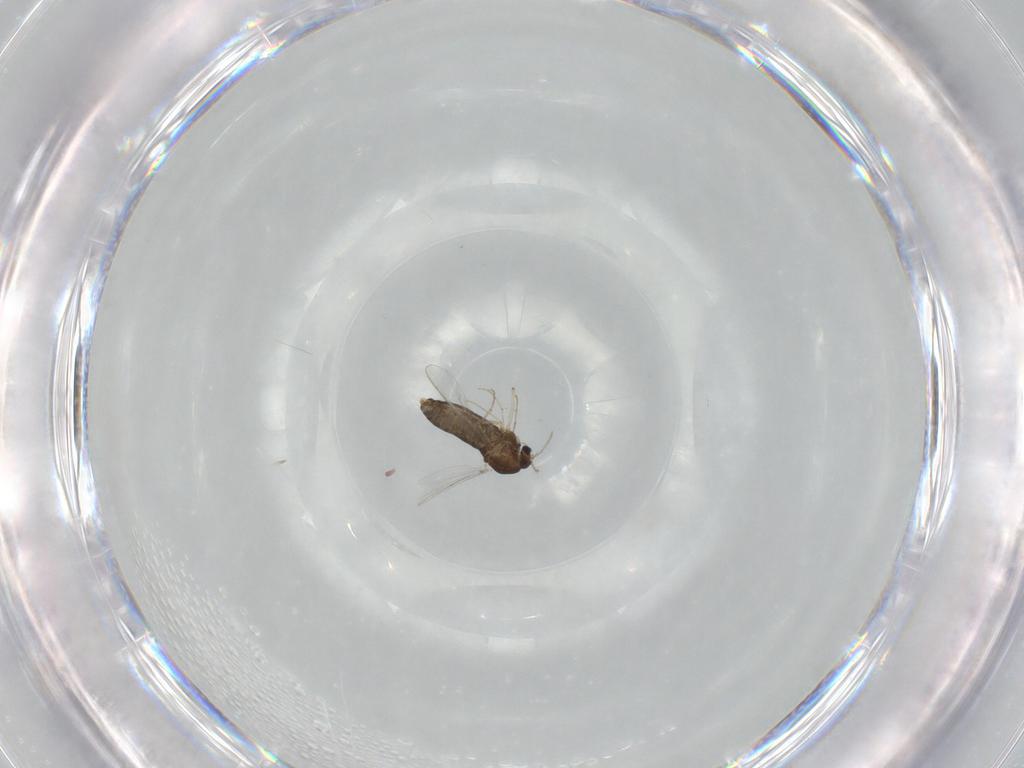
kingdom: Animalia
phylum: Arthropoda
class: Insecta
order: Diptera
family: Chironomidae
